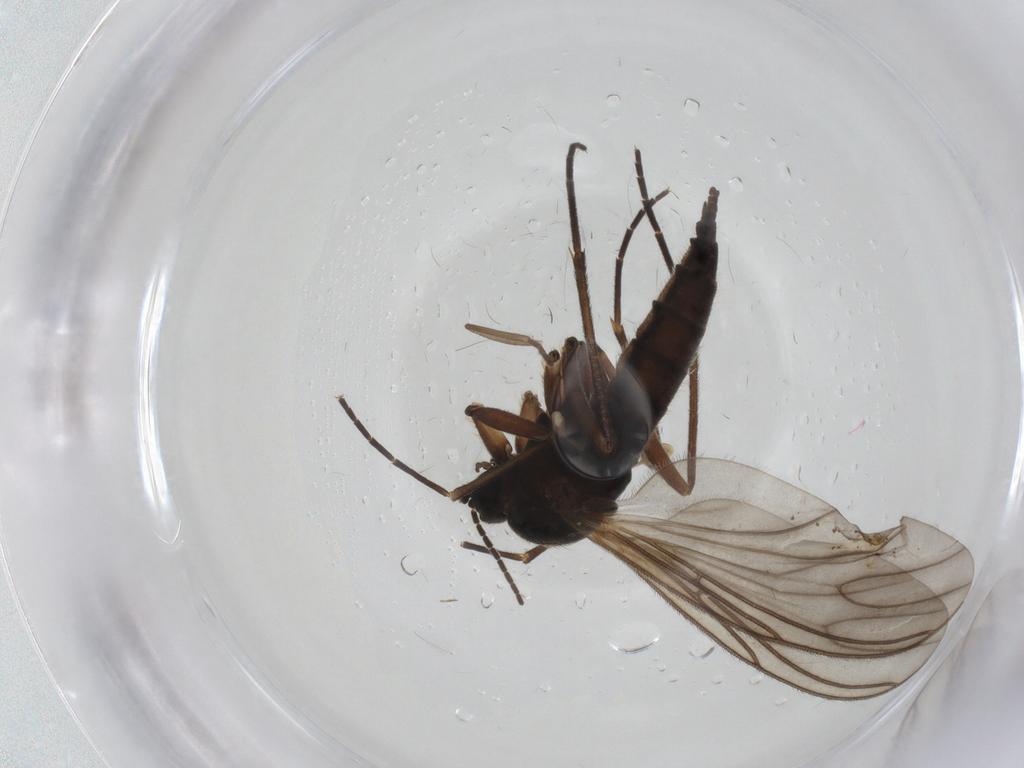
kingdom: Animalia
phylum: Arthropoda
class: Insecta
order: Diptera
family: Sciaridae
